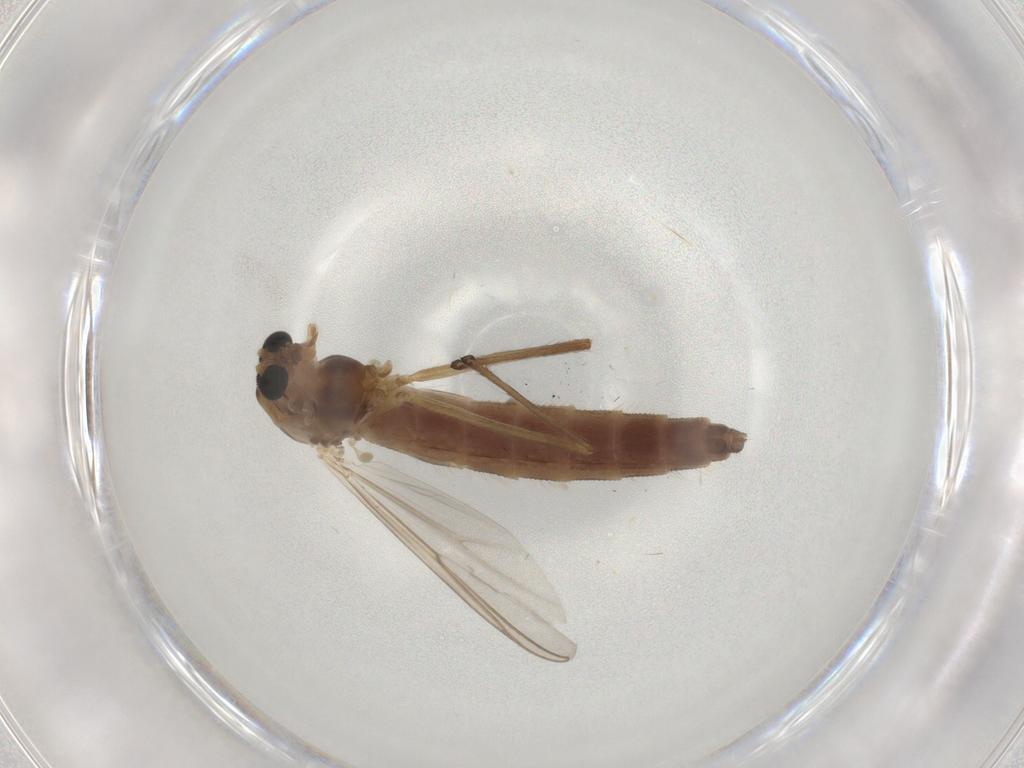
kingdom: Animalia
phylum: Arthropoda
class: Insecta
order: Diptera
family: Chironomidae
